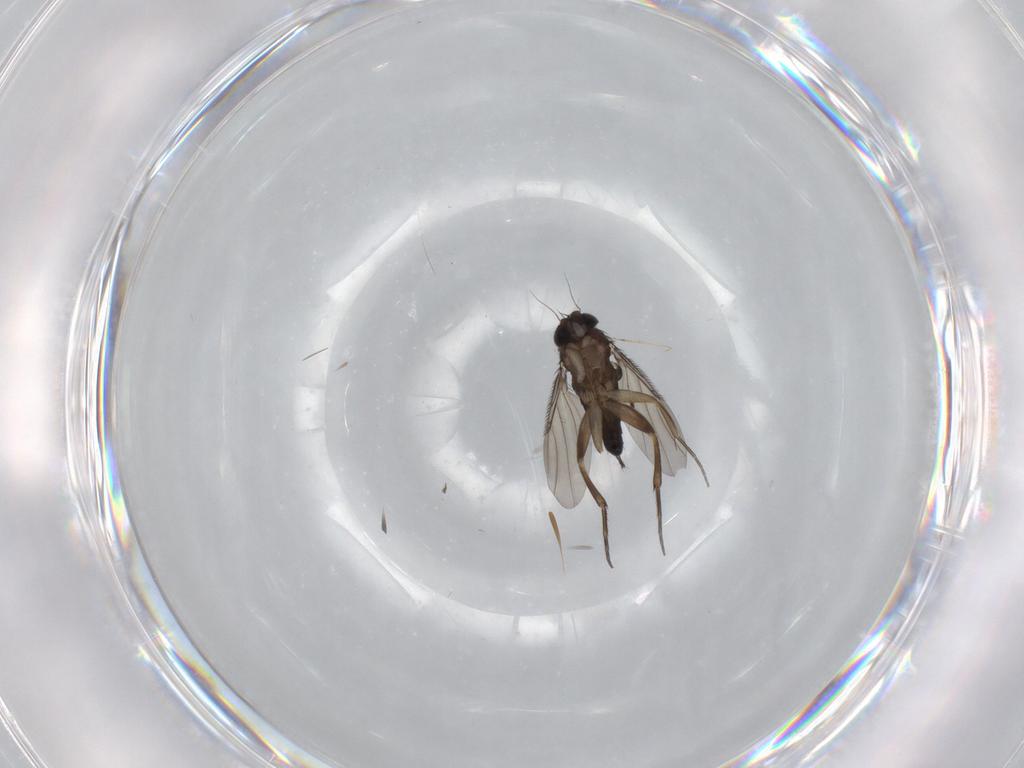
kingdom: Animalia
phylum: Arthropoda
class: Insecta
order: Diptera
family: Phoridae
